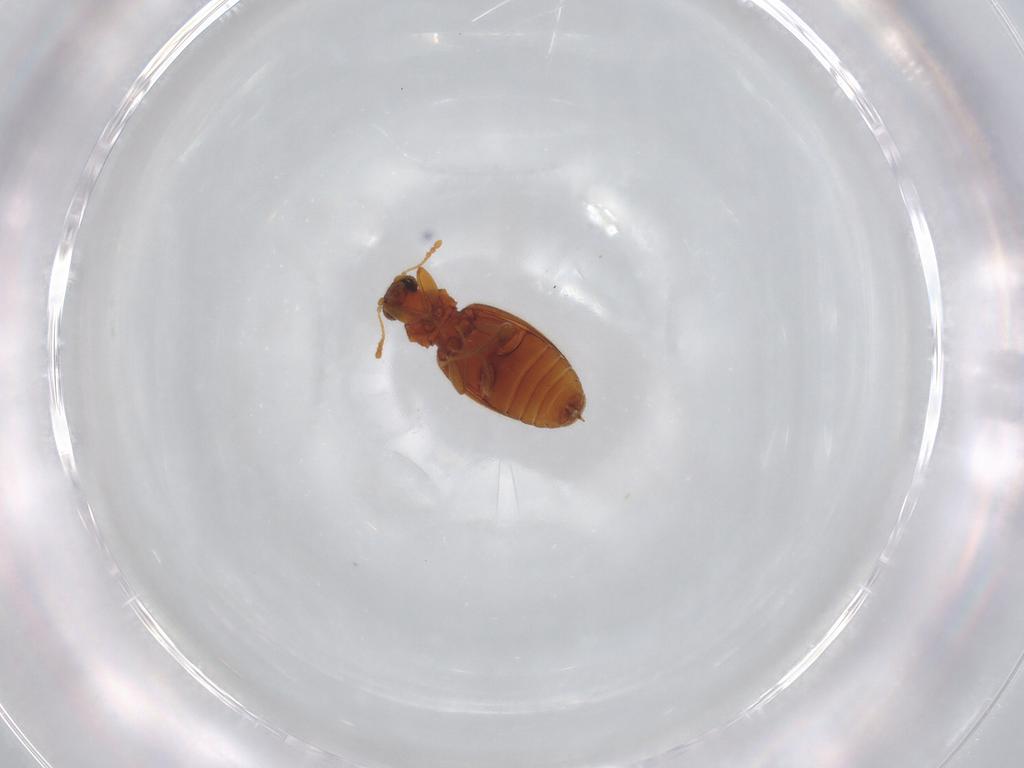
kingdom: Animalia
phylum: Arthropoda
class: Insecta
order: Coleoptera
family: Latridiidae
